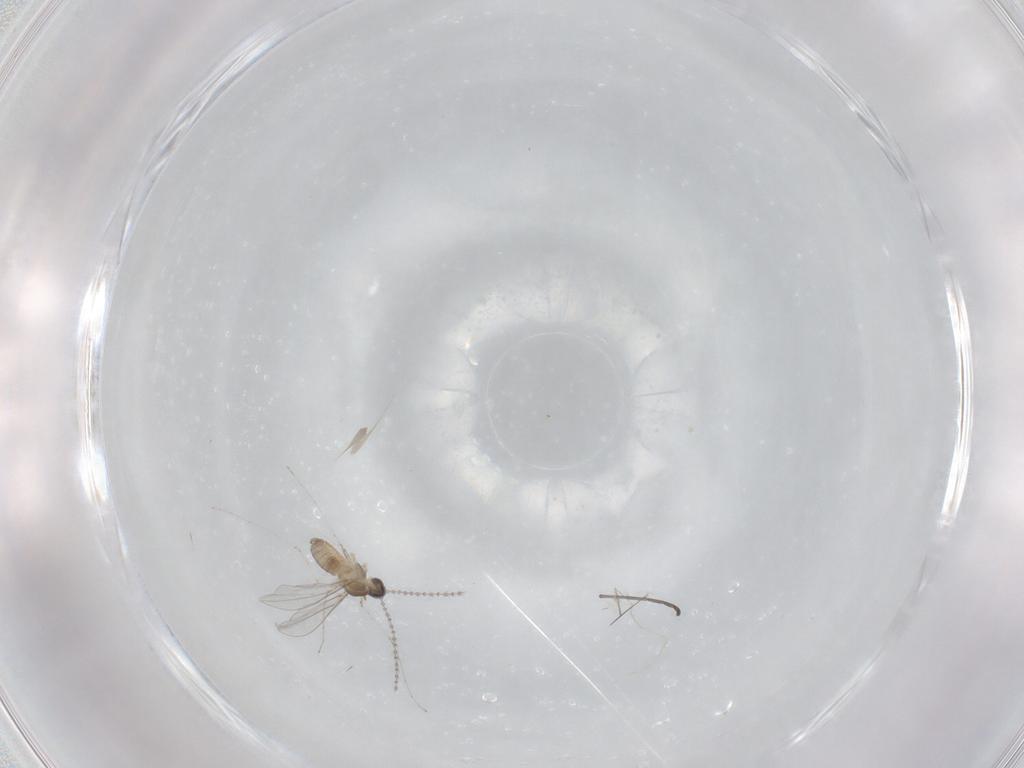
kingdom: Animalia
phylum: Arthropoda
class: Insecta
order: Diptera
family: Cecidomyiidae
